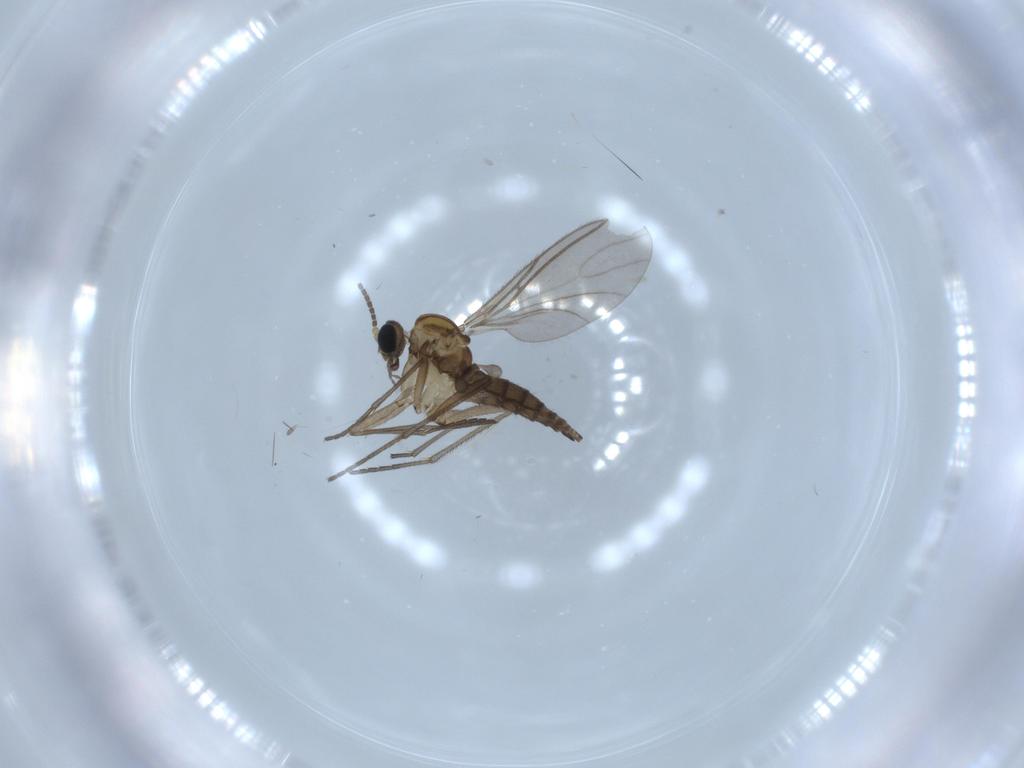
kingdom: Animalia
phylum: Arthropoda
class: Insecta
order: Diptera
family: Sciaridae
